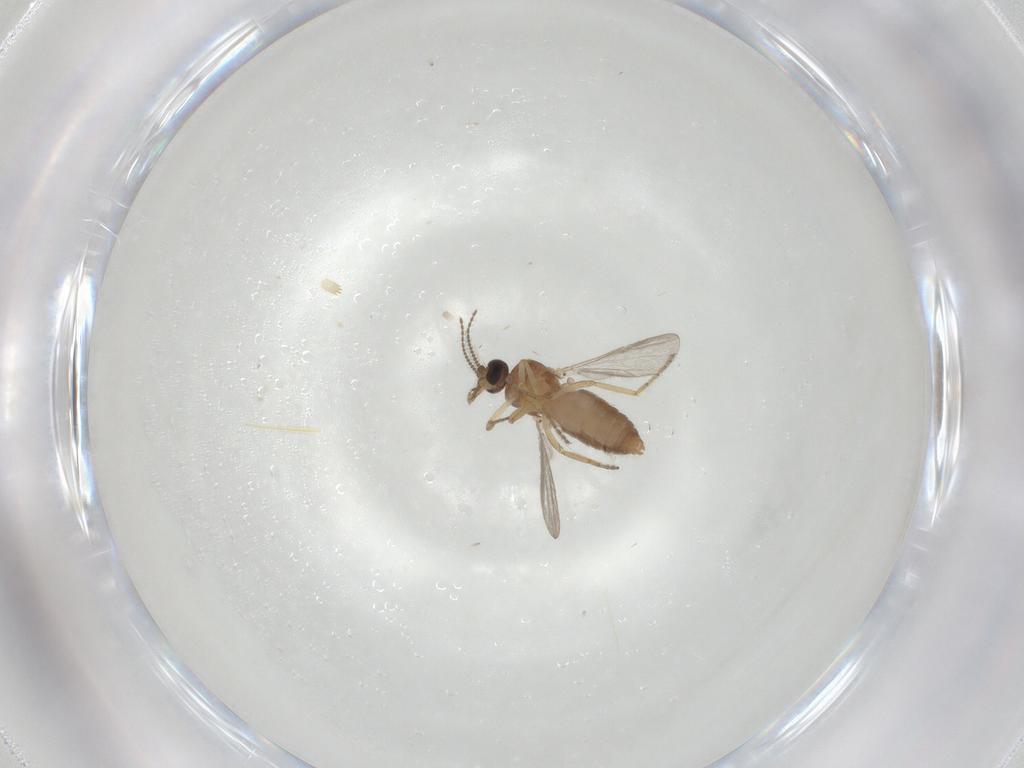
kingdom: Animalia
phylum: Arthropoda
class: Insecta
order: Diptera
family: Ceratopogonidae
